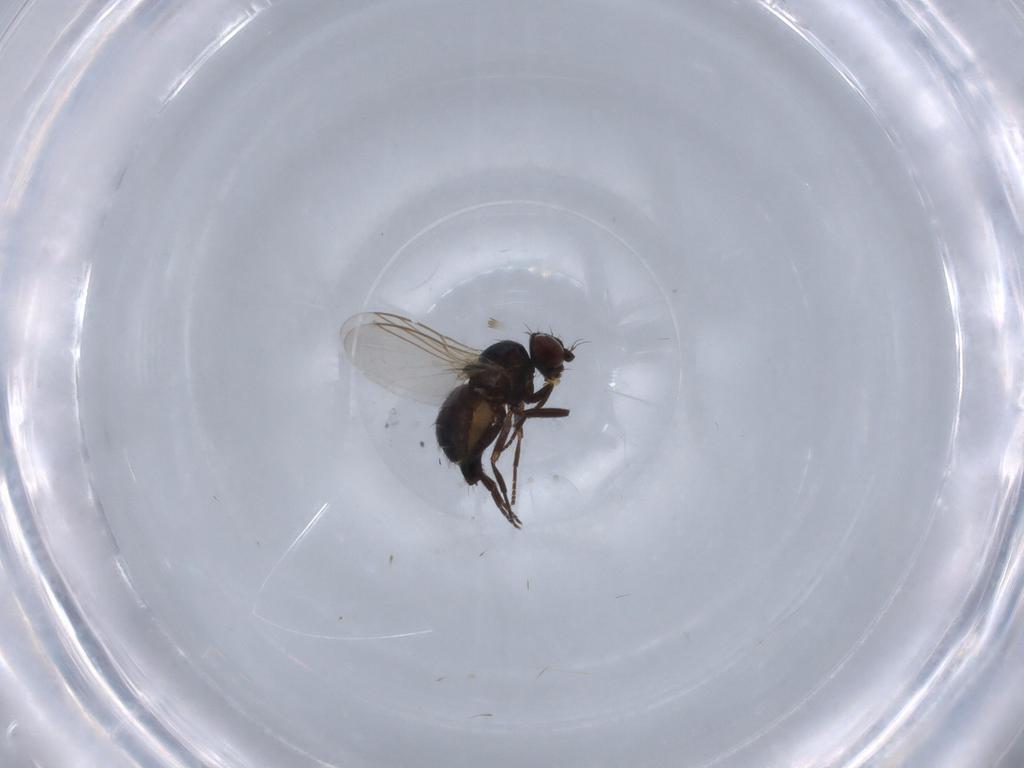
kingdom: Animalia
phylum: Arthropoda
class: Insecta
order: Diptera
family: Agromyzidae
